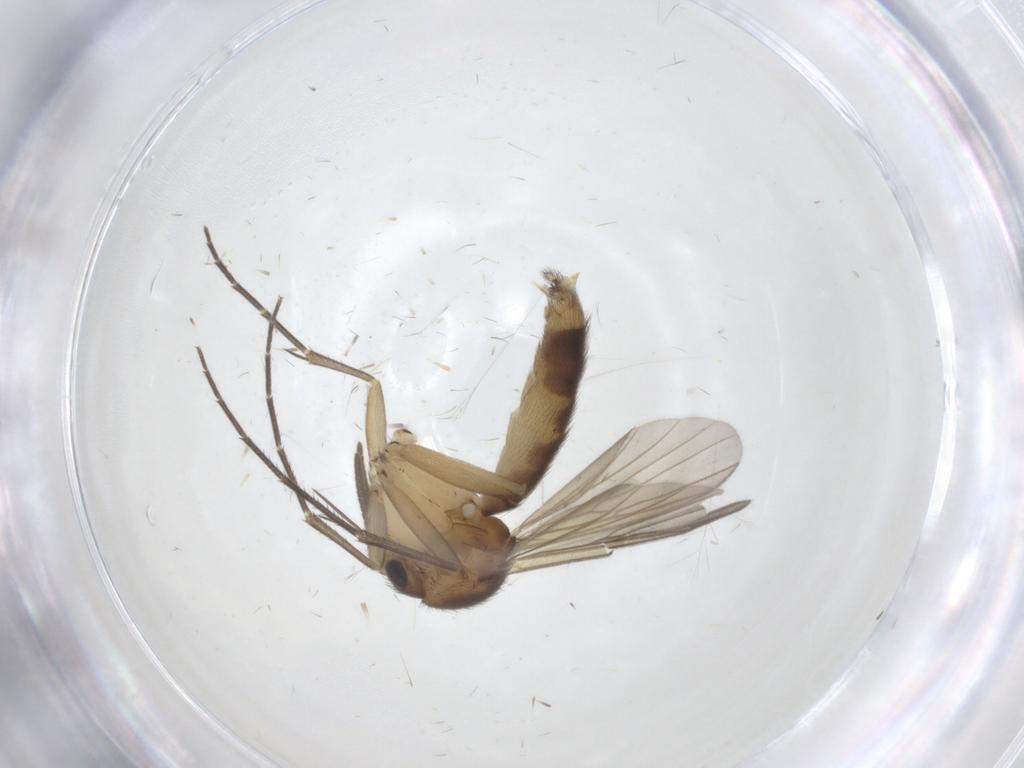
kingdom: Animalia
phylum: Arthropoda
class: Insecta
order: Diptera
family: Mycetophilidae
